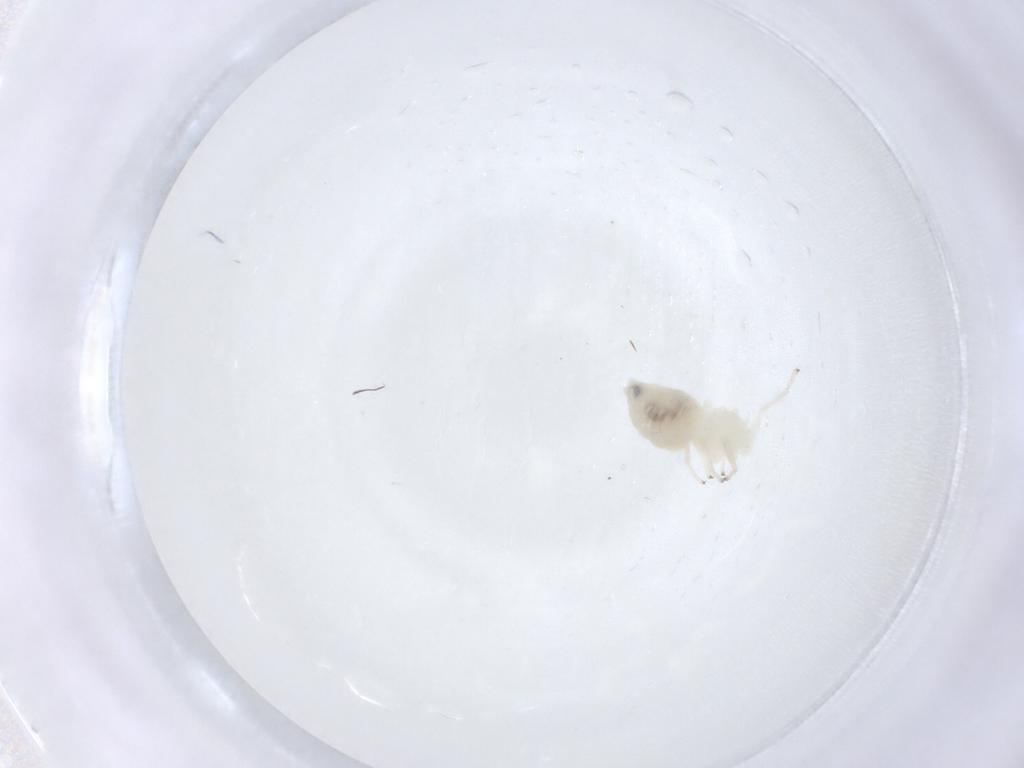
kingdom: Animalia
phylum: Arthropoda
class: Insecta
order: Psocodea
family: Caeciliusidae
